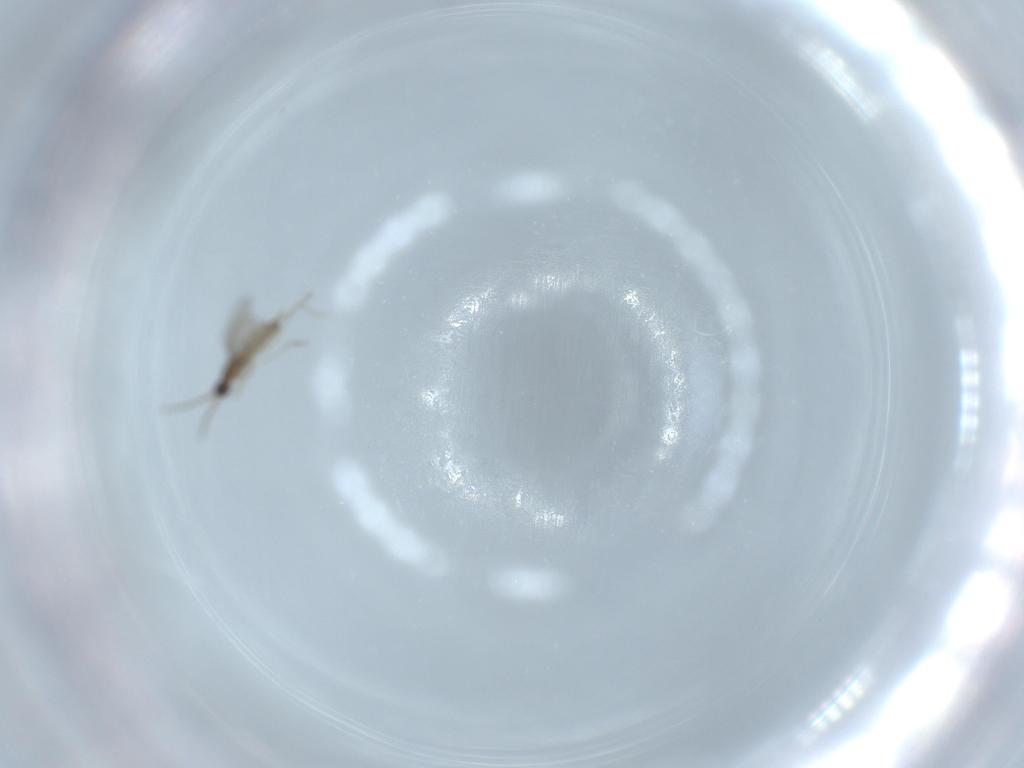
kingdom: Animalia
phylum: Arthropoda
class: Insecta
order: Diptera
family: Cecidomyiidae
